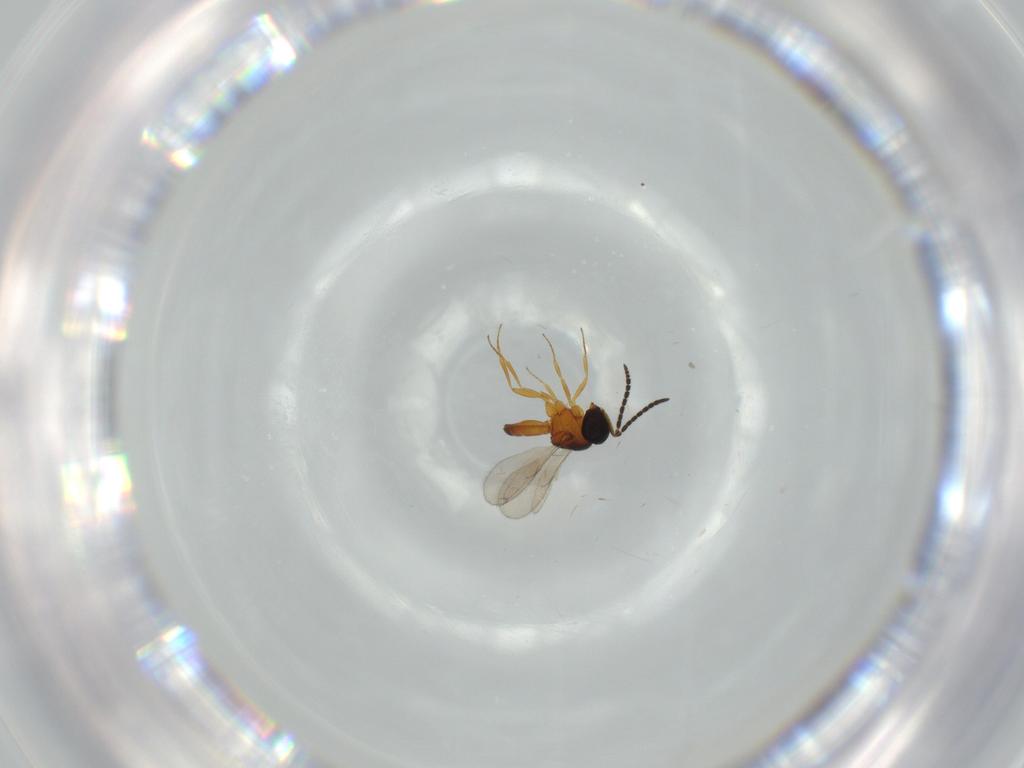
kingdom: Animalia
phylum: Arthropoda
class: Insecta
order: Hymenoptera
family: Scelionidae
